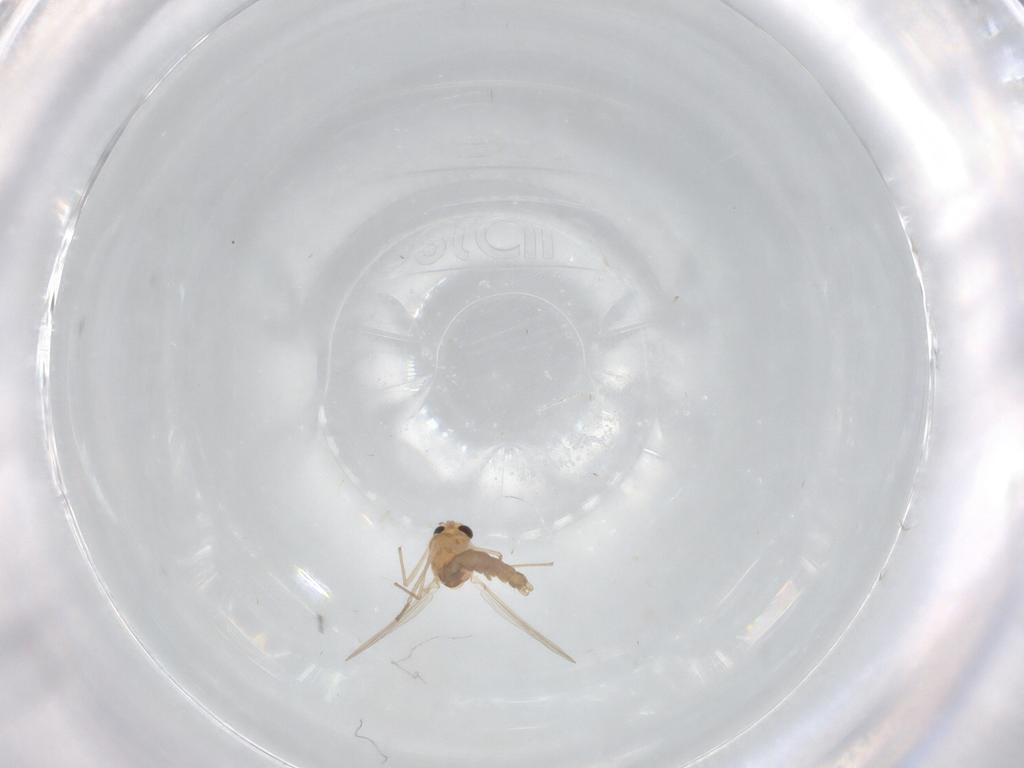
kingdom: Animalia
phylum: Arthropoda
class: Insecta
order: Diptera
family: Chironomidae
